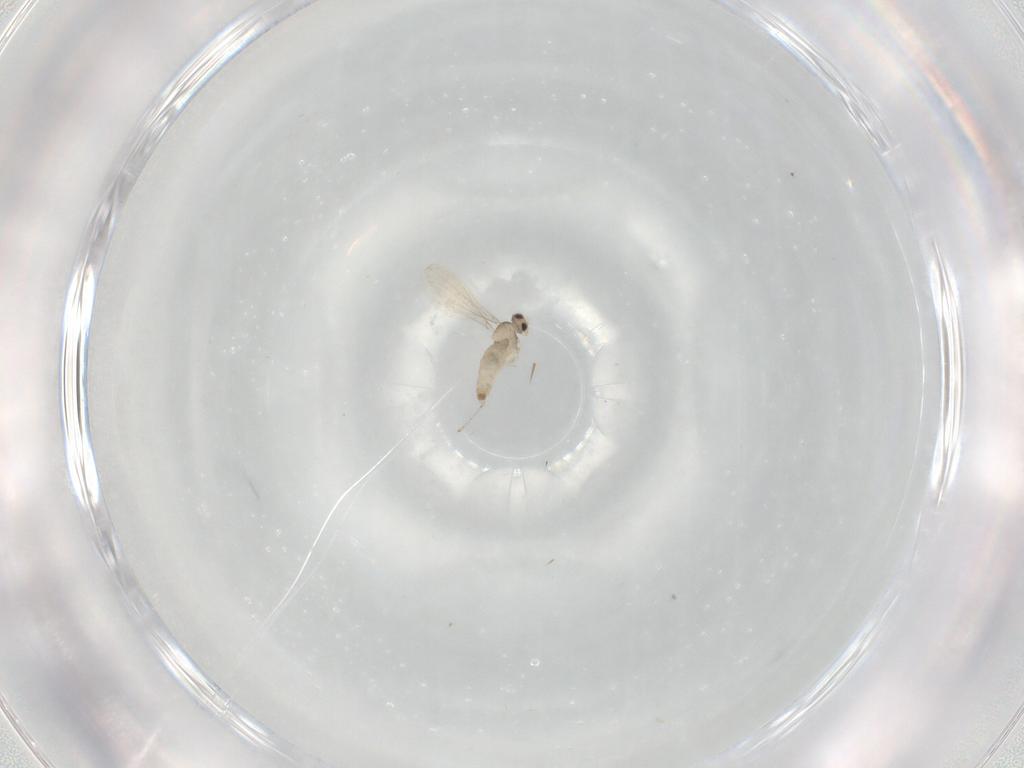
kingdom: Animalia
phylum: Arthropoda
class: Insecta
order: Diptera
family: Cecidomyiidae
